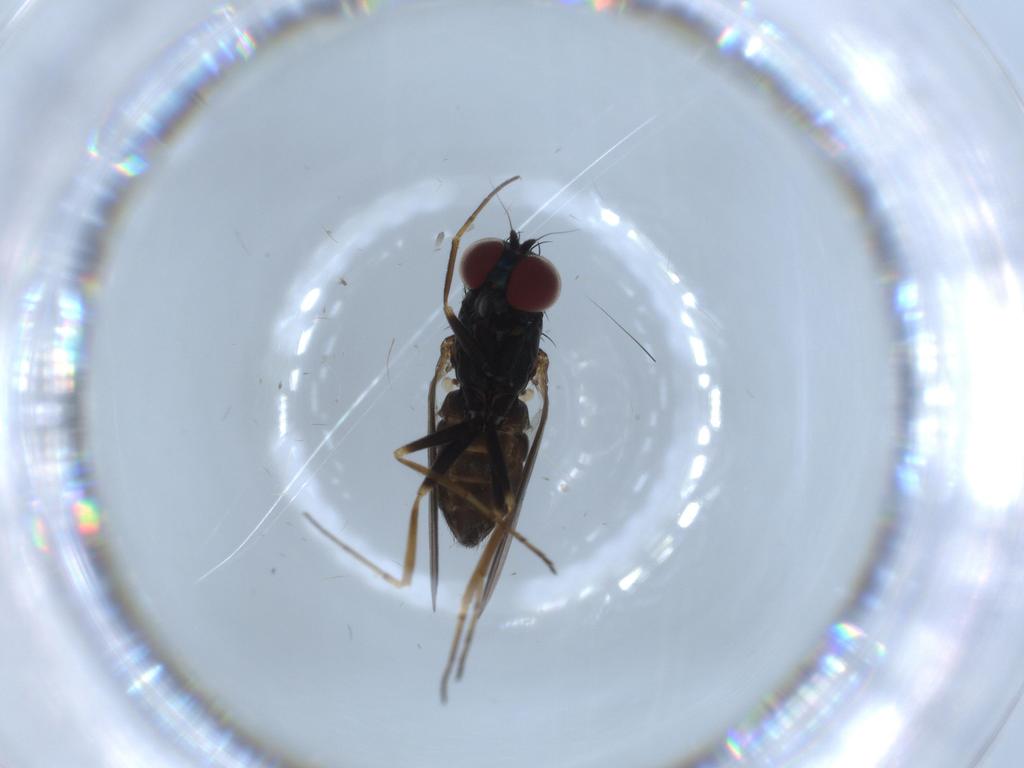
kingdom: Animalia
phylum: Arthropoda
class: Insecta
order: Diptera
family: Dolichopodidae
